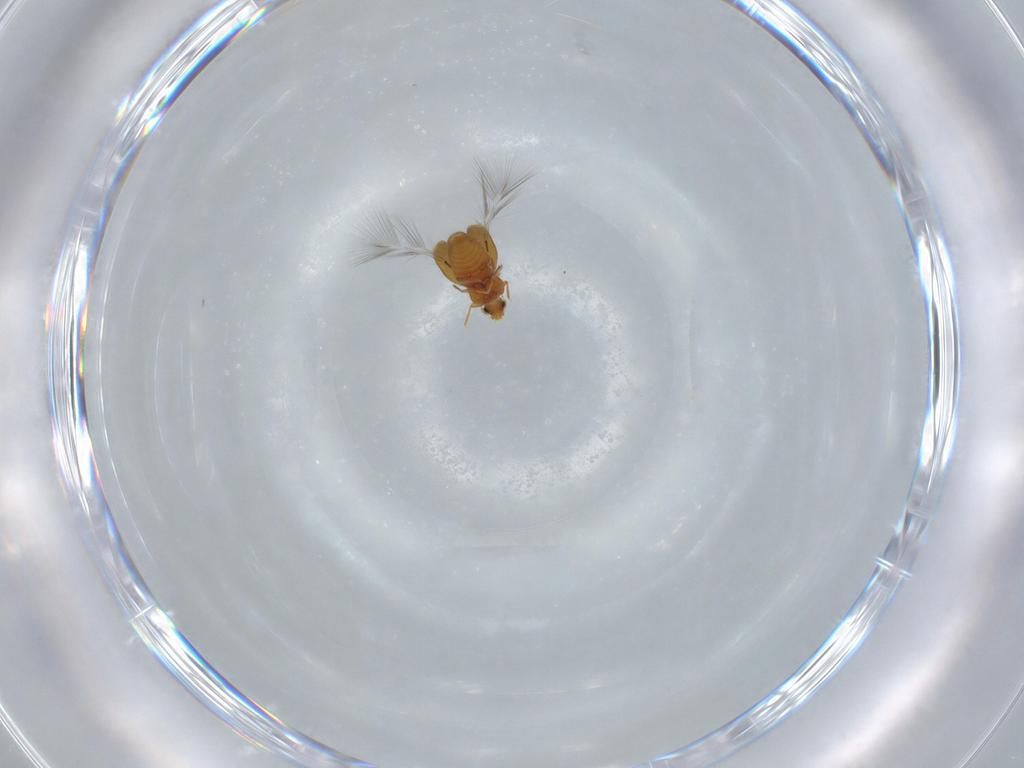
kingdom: Animalia
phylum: Arthropoda
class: Insecta
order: Coleoptera
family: Ptiliidae
